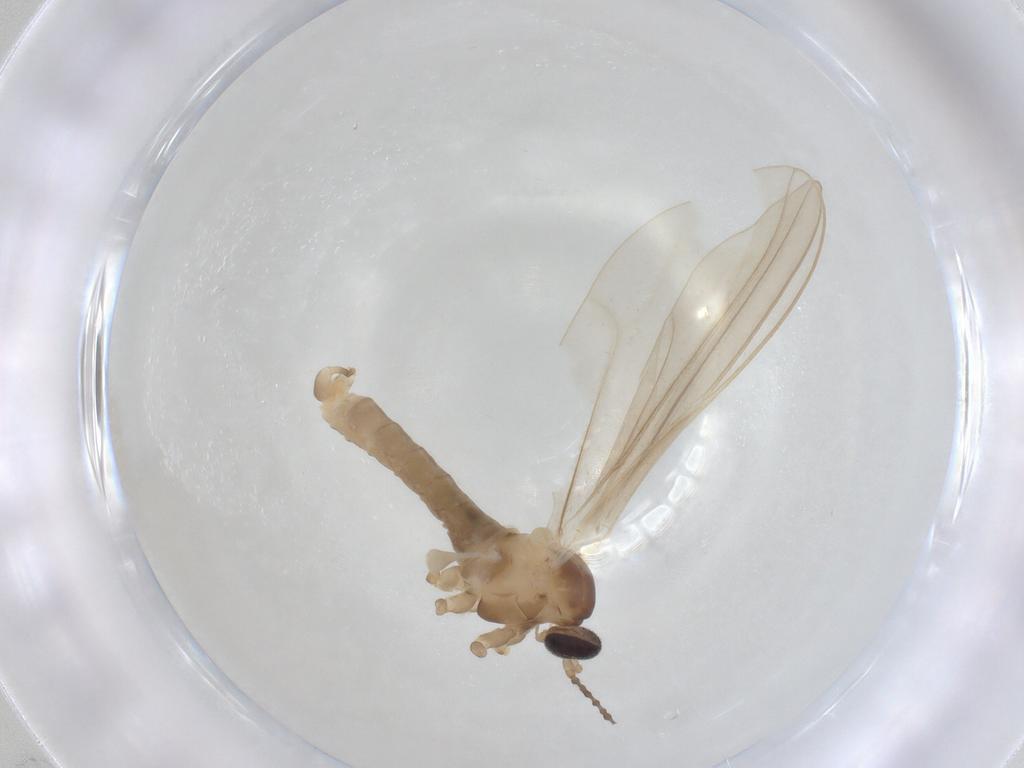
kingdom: Animalia
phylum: Arthropoda
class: Insecta
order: Diptera
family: Cecidomyiidae
